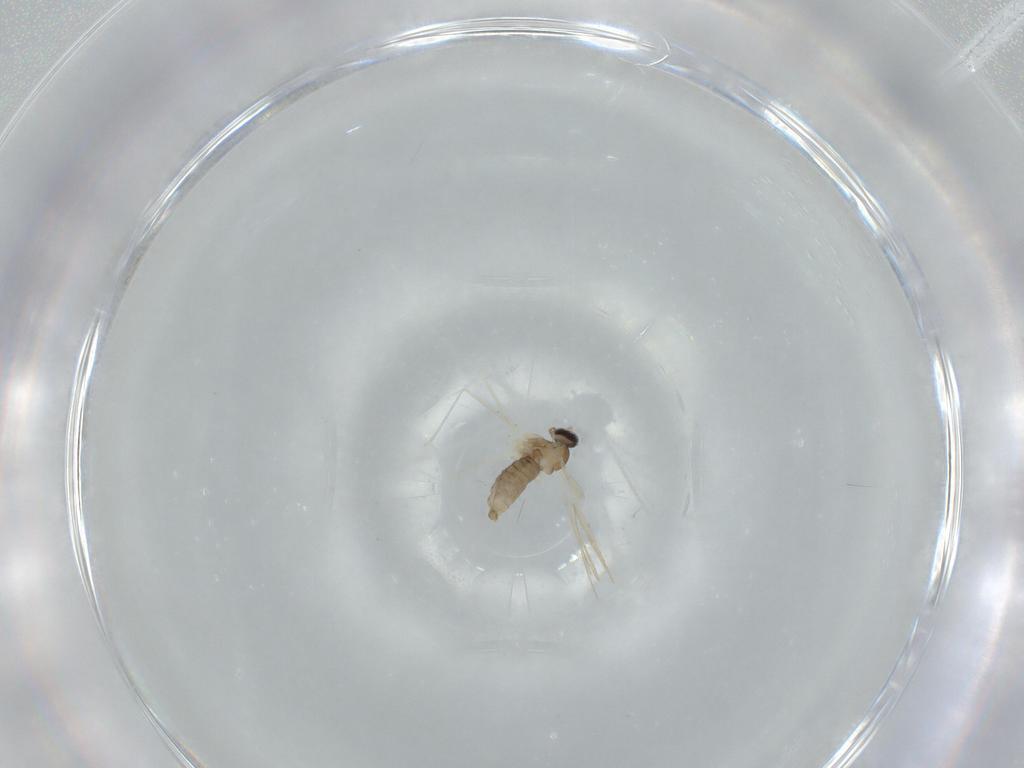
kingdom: Animalia
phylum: Arthropoda
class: Insecta
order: Diptera
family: Cecidomyiidae
